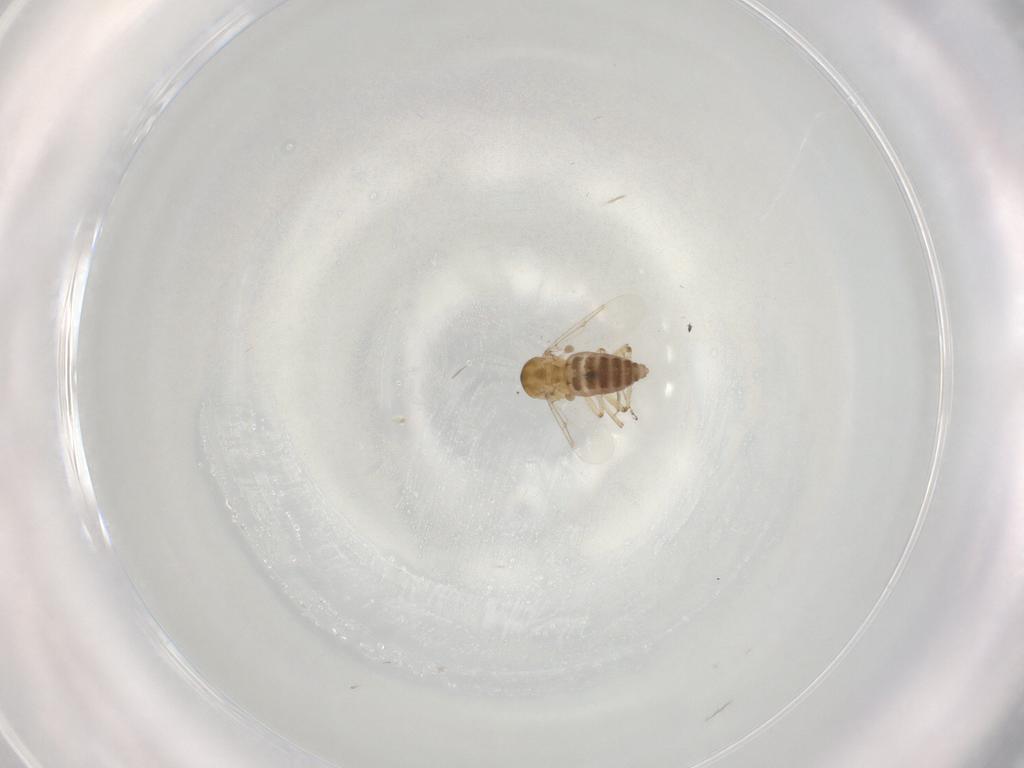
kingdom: Animalia
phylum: Arthropoda
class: Insecta
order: Diptera
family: Ceratopogonidae
